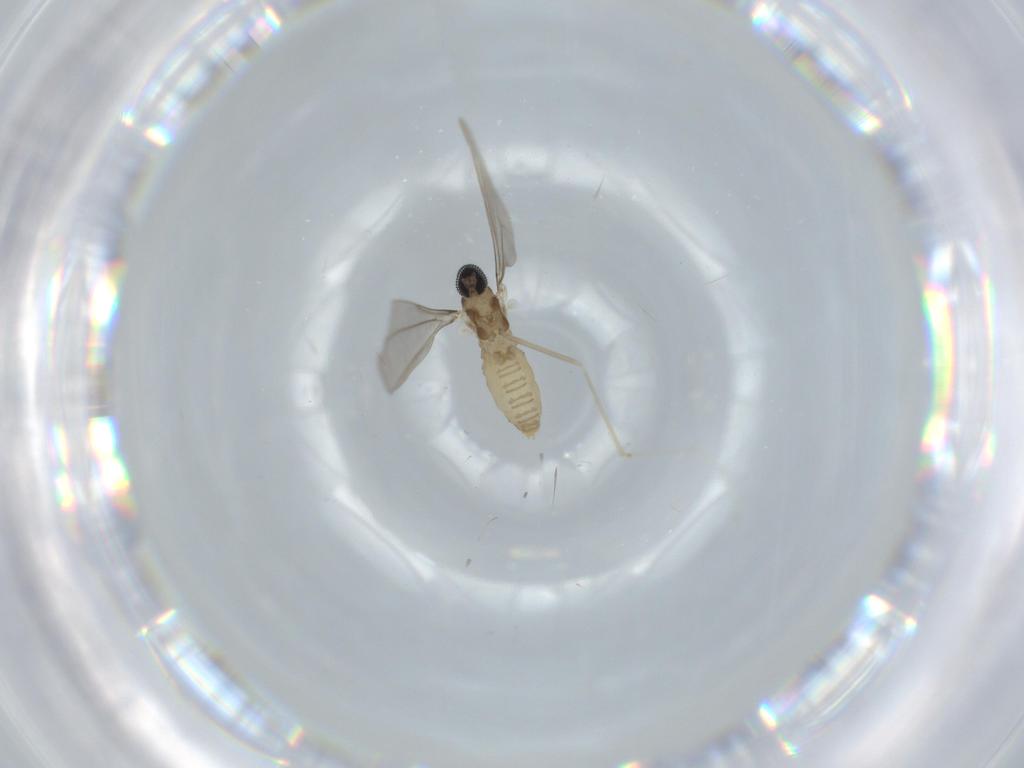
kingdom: Animalia
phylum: Arthropoda
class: Insecta
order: Diptera
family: Cecidomyiidae
